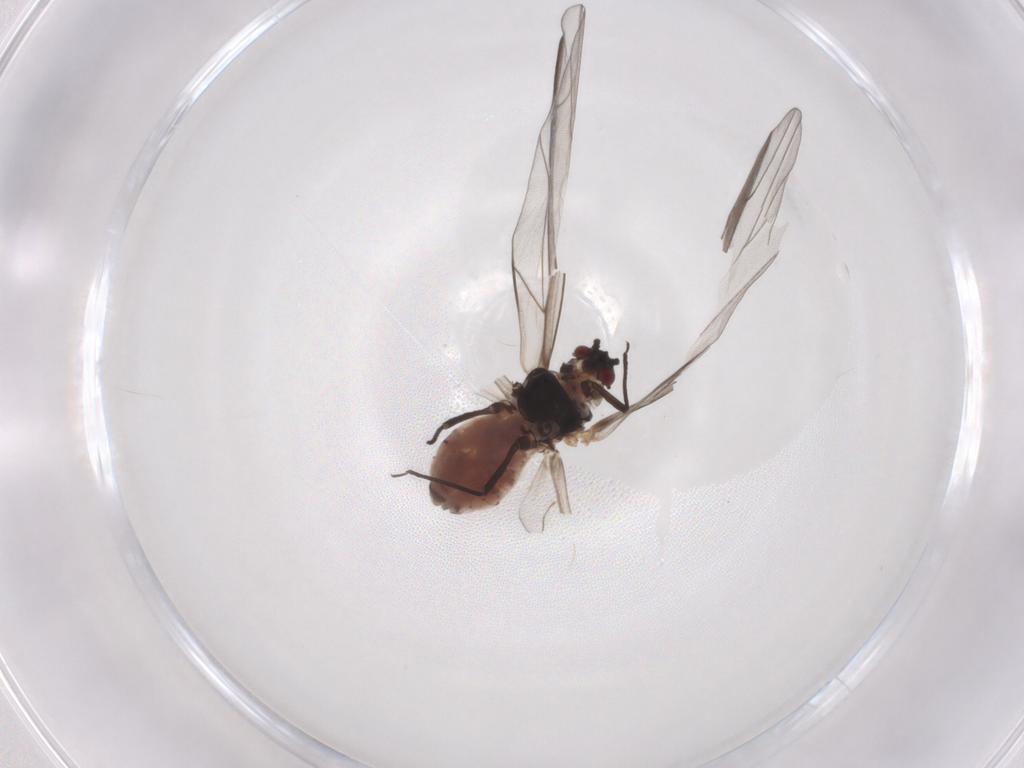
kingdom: Animalia
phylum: Arthropoda
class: Insecta
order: Hemiptera
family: Aphididae
